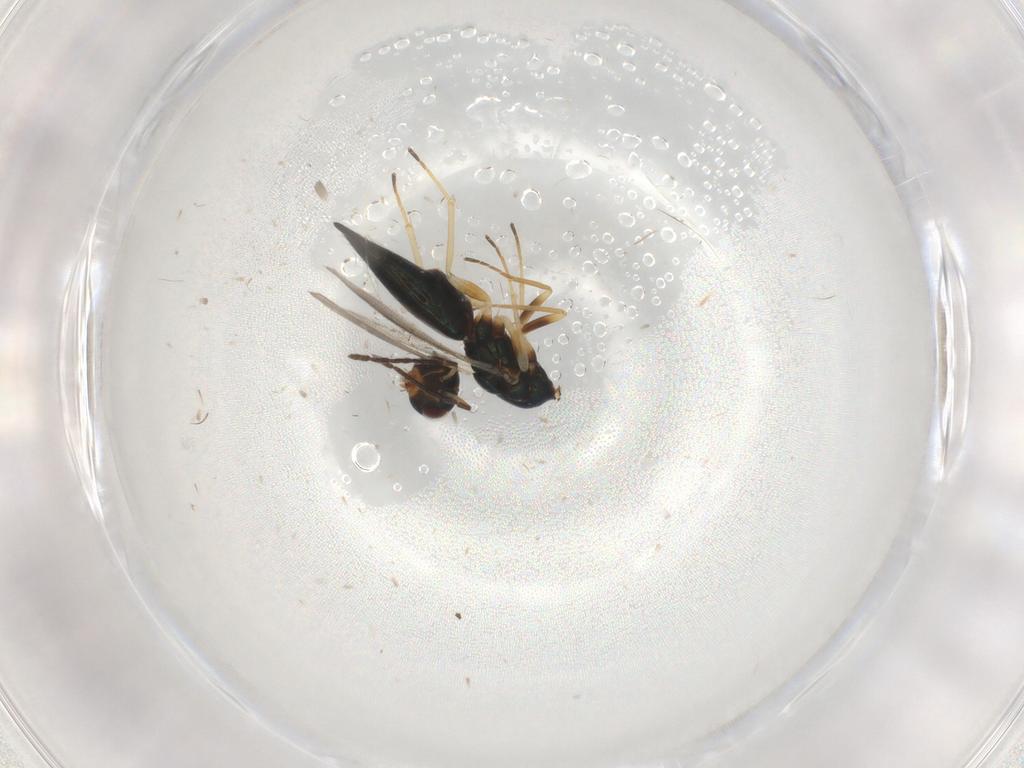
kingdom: Animalia
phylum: Arthropoda
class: Insecta
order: Hymenoptera
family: Eulophidae
